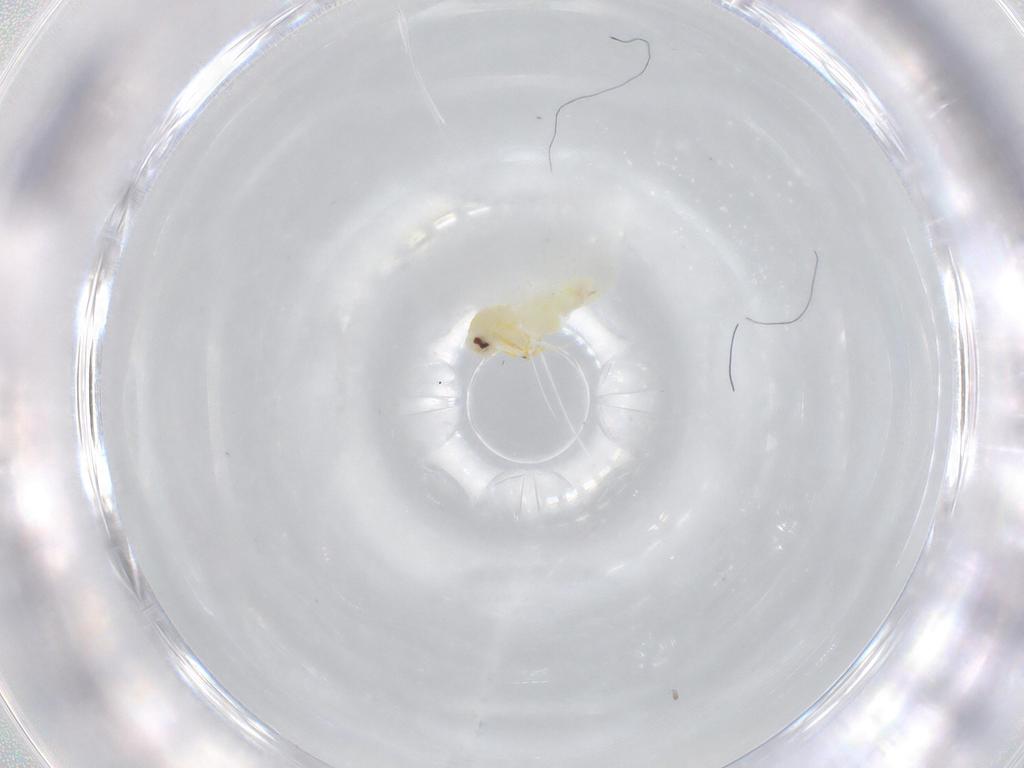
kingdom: Animalia
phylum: Arthropoda
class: Insecta
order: Hemiptera
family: Aleyrodidae
